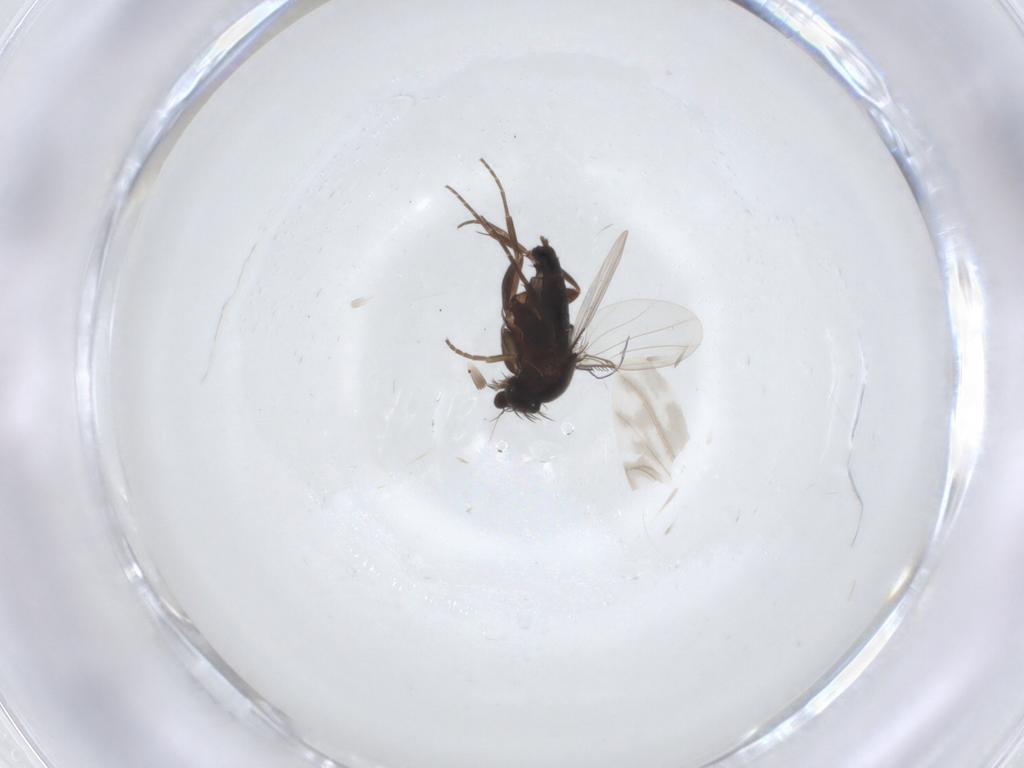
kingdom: Animalia
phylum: Arthropoda
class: Insecta
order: Diptera
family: Phoridae
